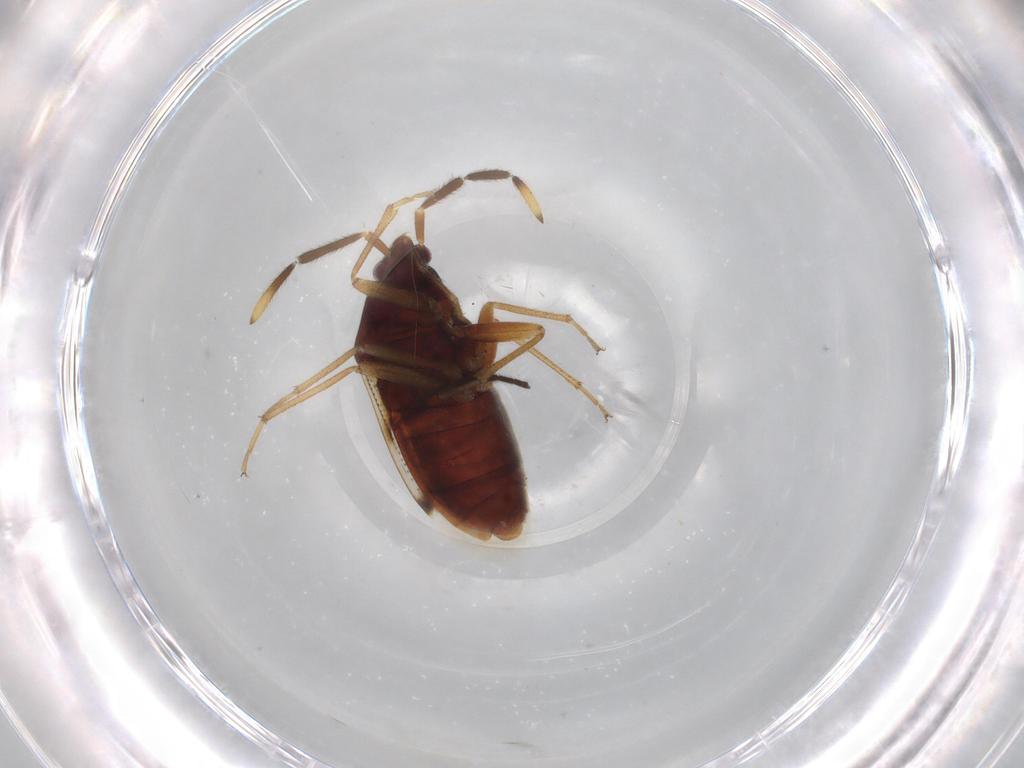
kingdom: Animalia
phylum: Arthropoda
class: Insecta
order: Hemiptera
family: Rhyparochromidae
